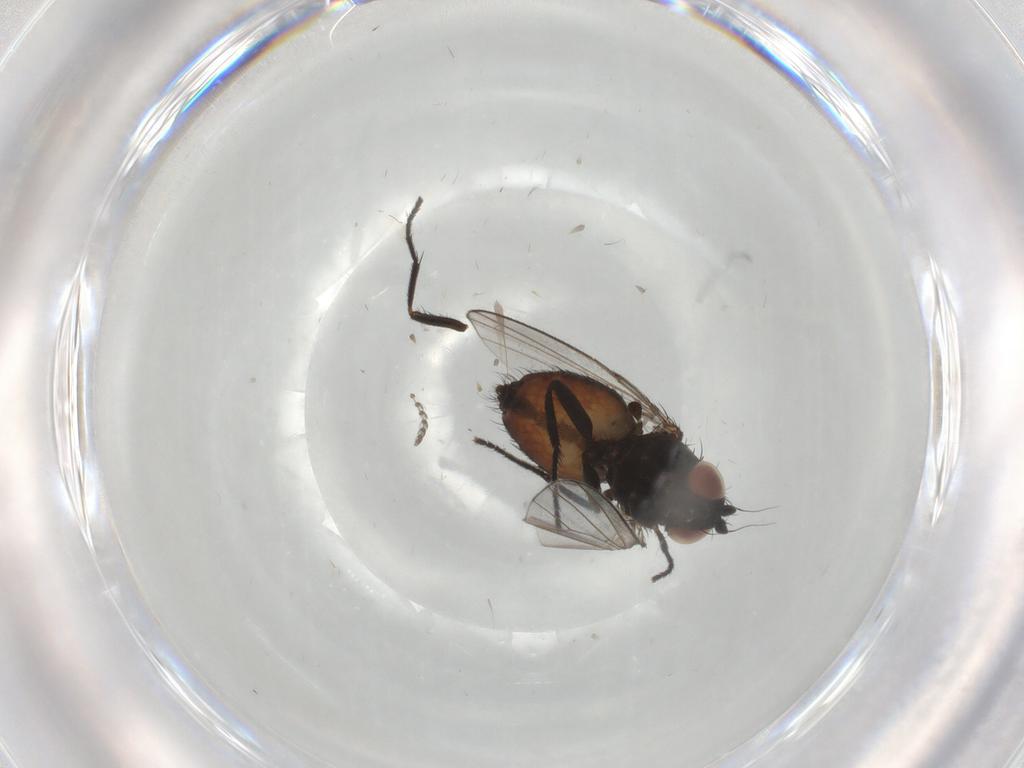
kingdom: Animalia
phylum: Arthropoda
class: Insecta
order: Diptera
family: Milichiidae
